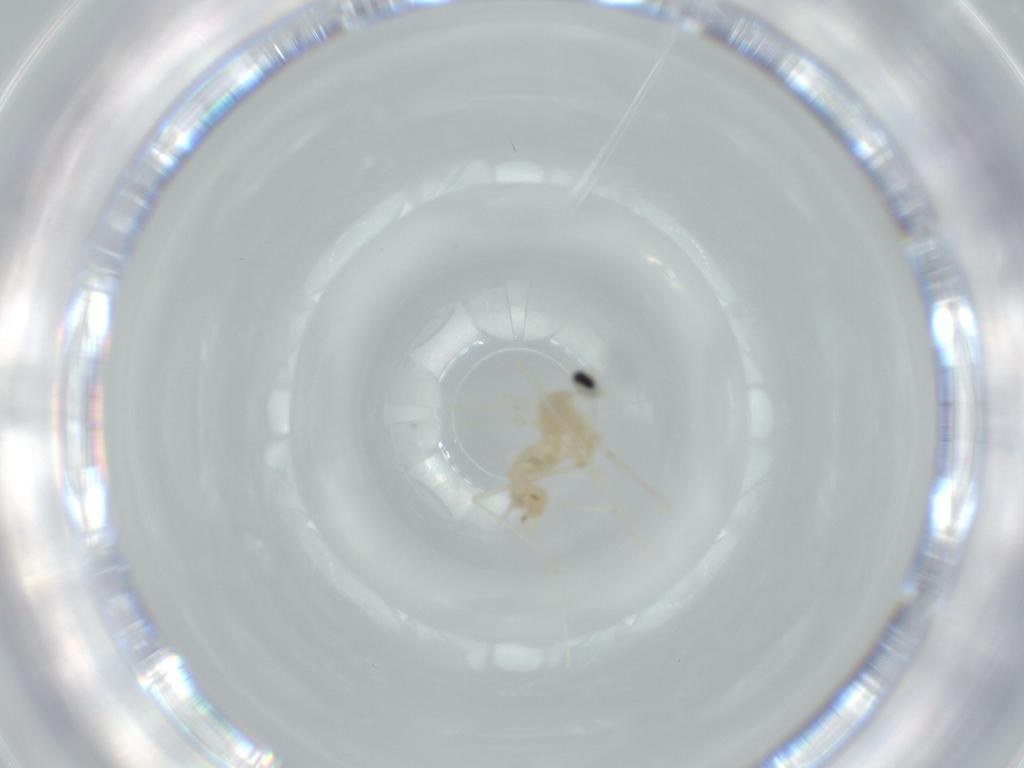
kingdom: Animalia
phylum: Arthropoda
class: Insecta
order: Diptera
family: Cecidomyiidae
